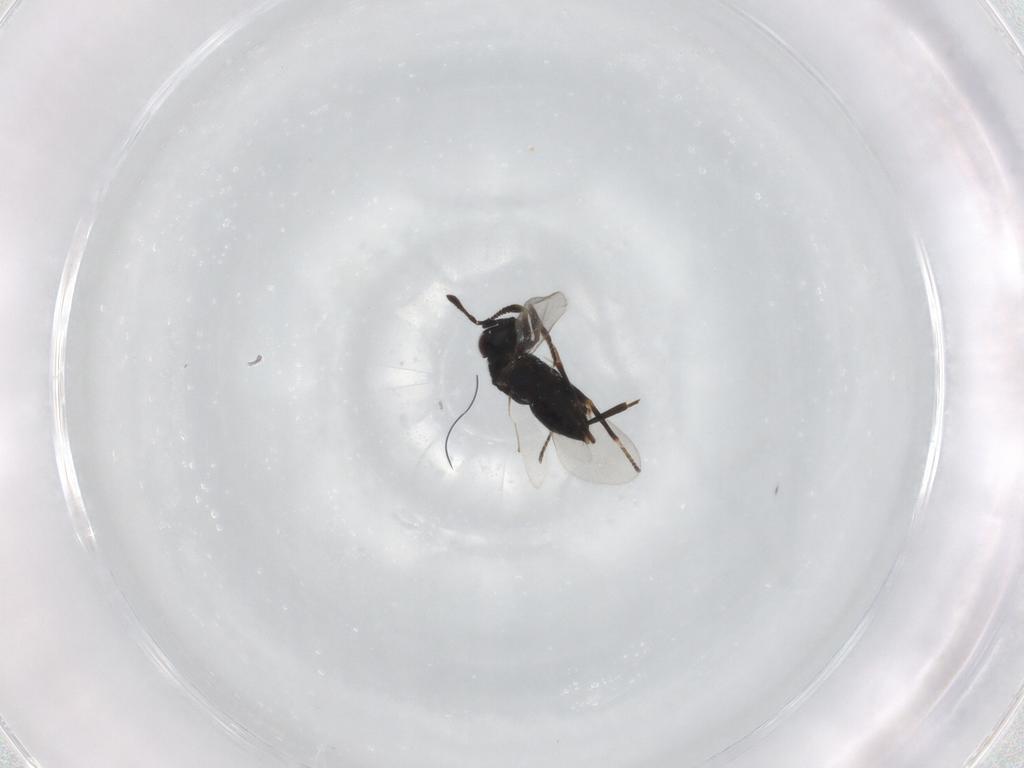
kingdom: Animalia
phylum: Arthropoda
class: Insecta
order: Hymenoptera
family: Encyrtidae
